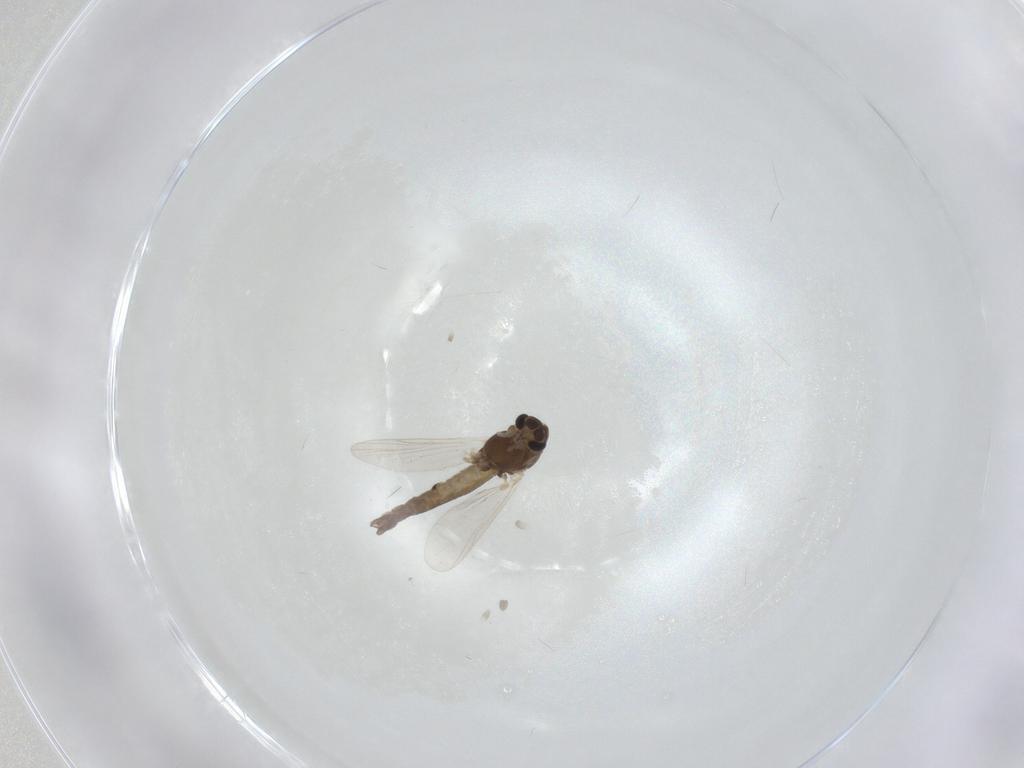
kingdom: Animalia
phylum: Arthropoda
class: Insecta
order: Diptera
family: Chironomidae
